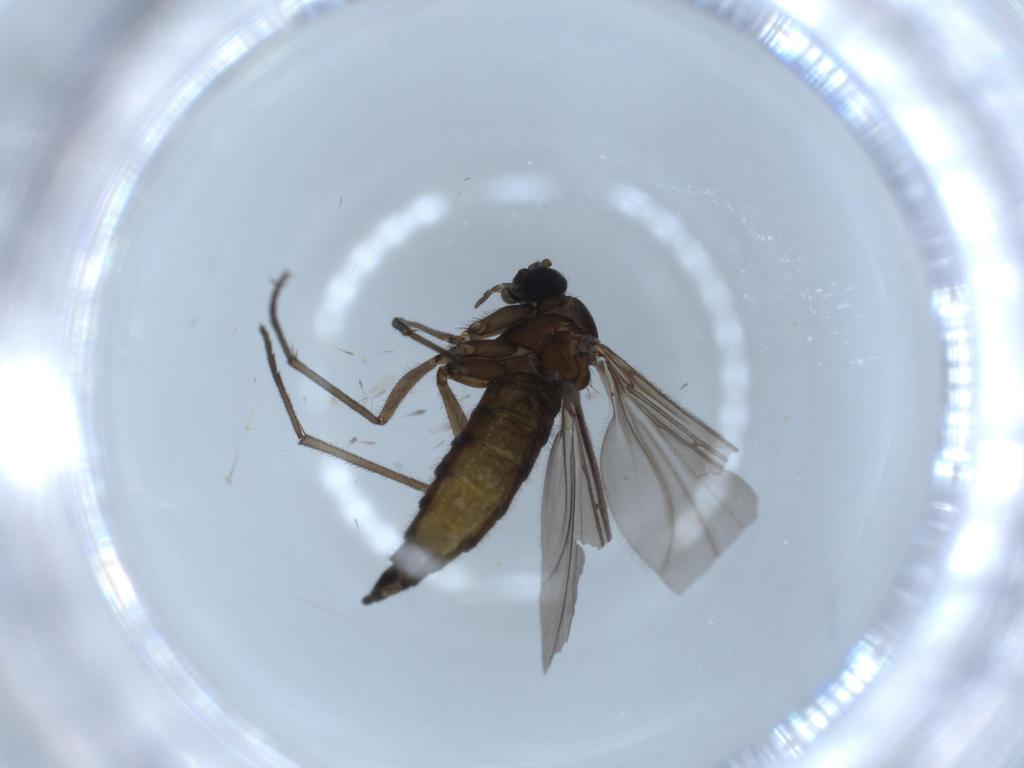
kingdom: Animalia
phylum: Arthropoda
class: Insecta
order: Diptera
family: Sciaridae
